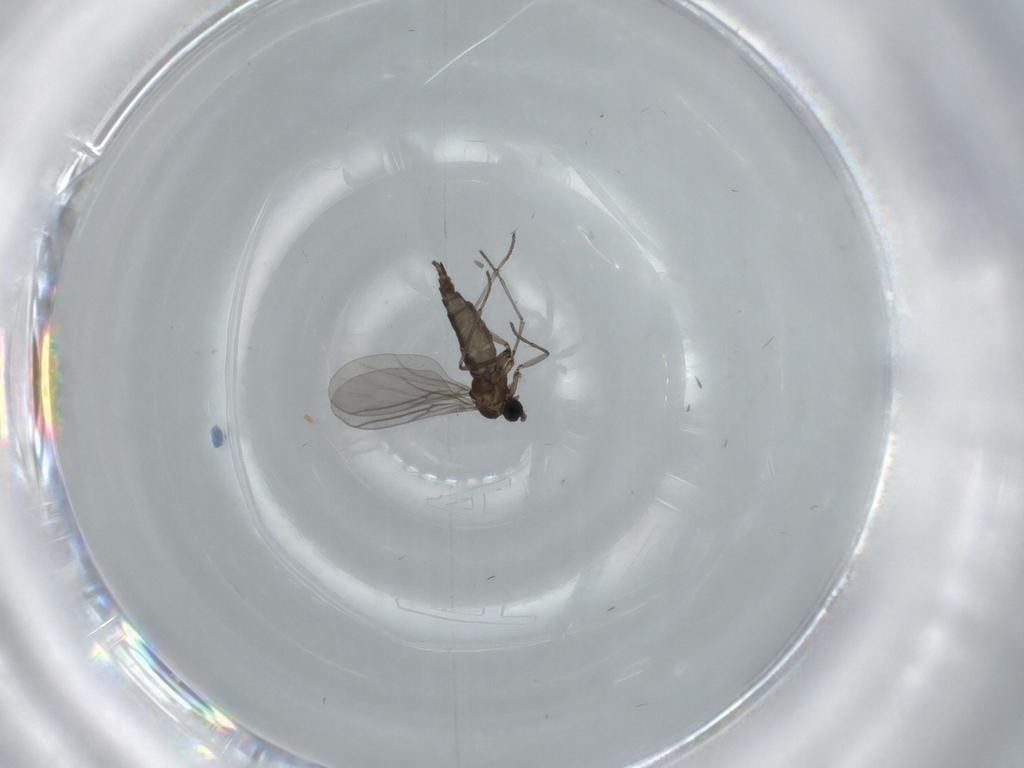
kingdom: Animalia
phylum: Arthropoda
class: Insecta
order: Diptera
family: Sciaridae
